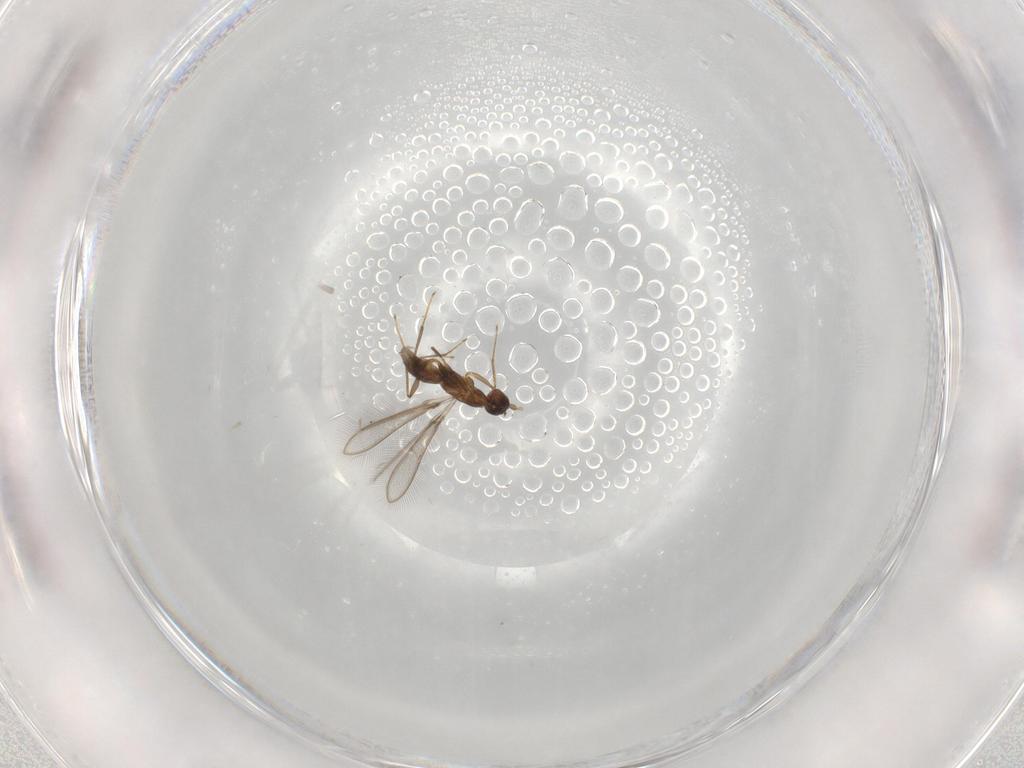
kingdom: Animalia
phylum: Arthropoda
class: Insecta
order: Hymenoptera
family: Mymaridae
